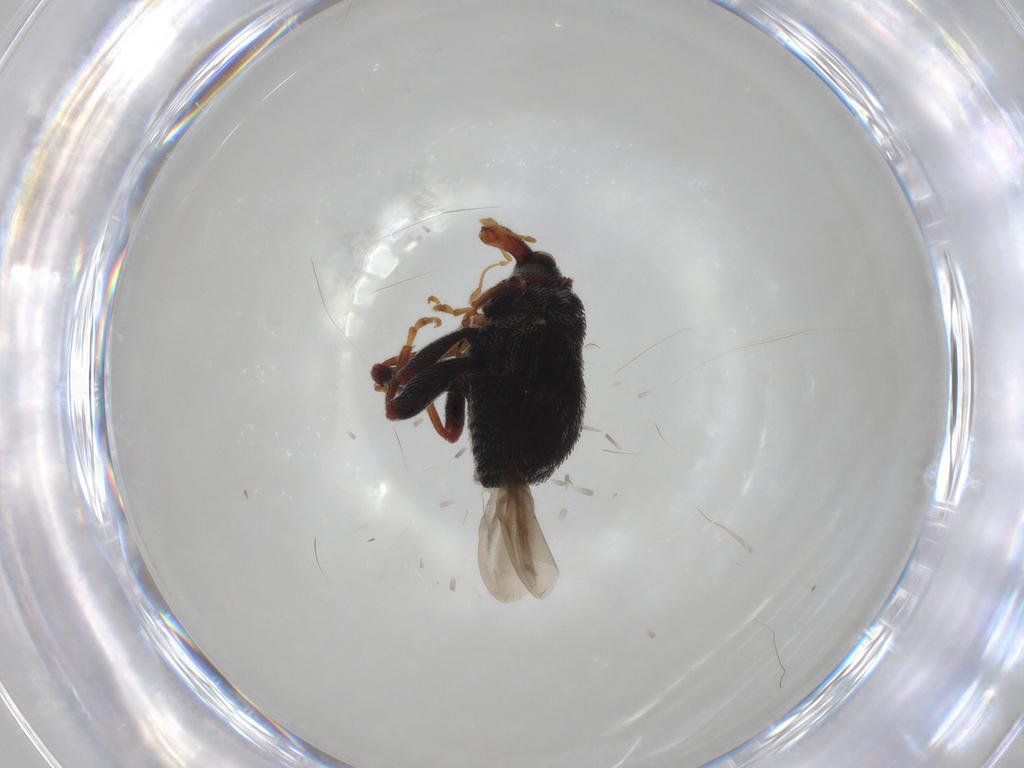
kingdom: Animalia
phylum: Arthropoda
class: Insecta
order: Coleoptera
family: Curculionidae
